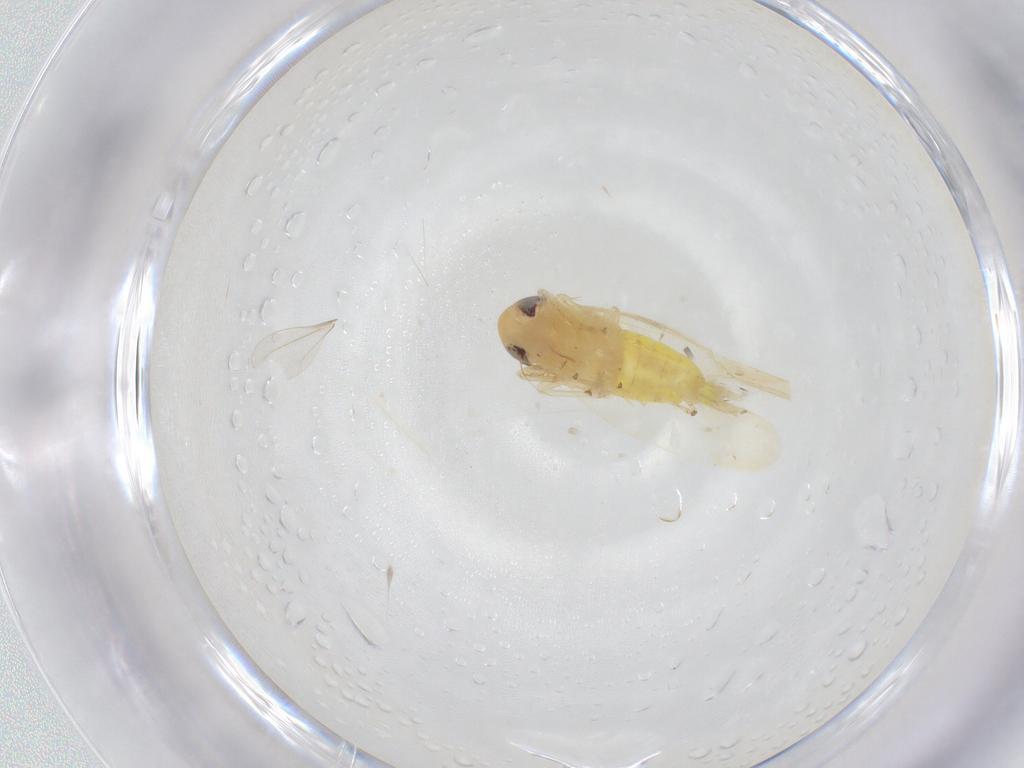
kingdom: Animalia
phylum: Arthropoda
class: Insecta
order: Hemiptera
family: Cicadellidae
